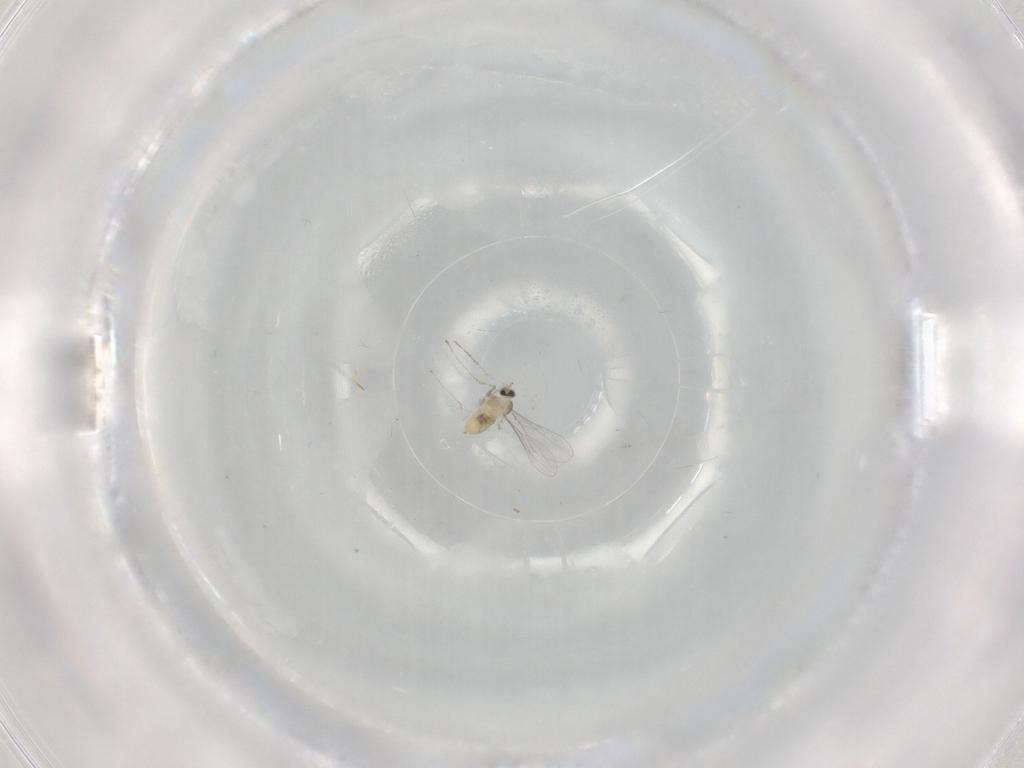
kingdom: Animalia
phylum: Arthropoda
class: Insecta
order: Diptera
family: Cecidomyiidae
